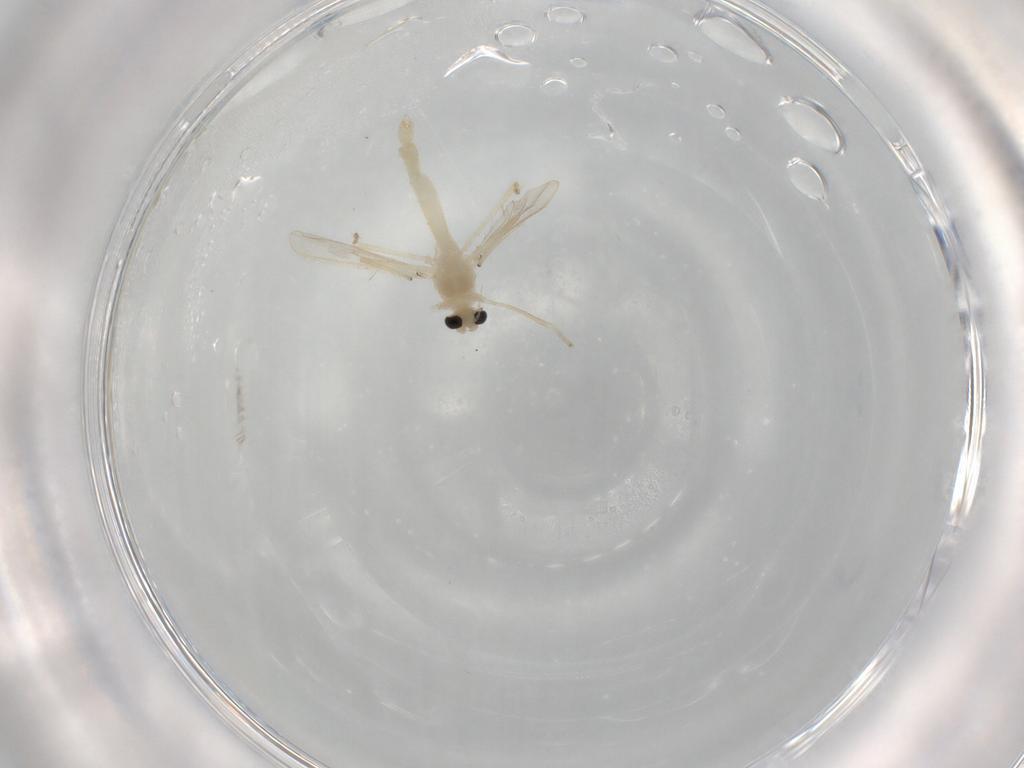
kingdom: Animalia
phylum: Arthropoda
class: Insecta
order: Diptera
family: Chironomidae
